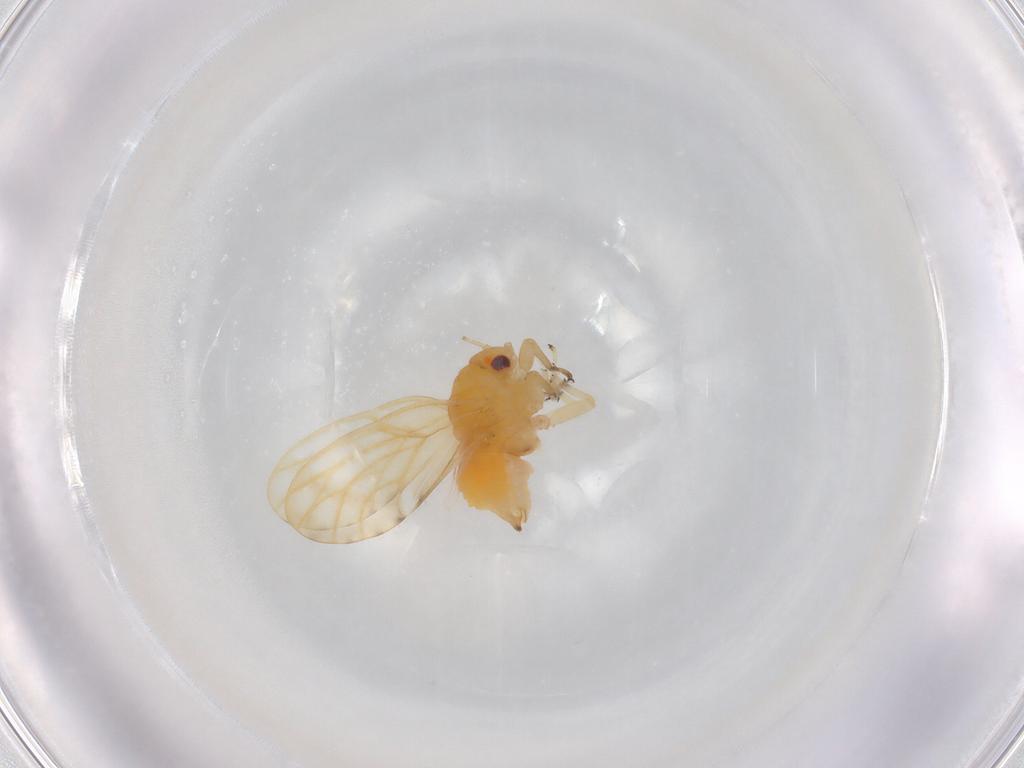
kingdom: Animalia
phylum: Arthropoda
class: Insecta
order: Hemiptera
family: Psyllidae
